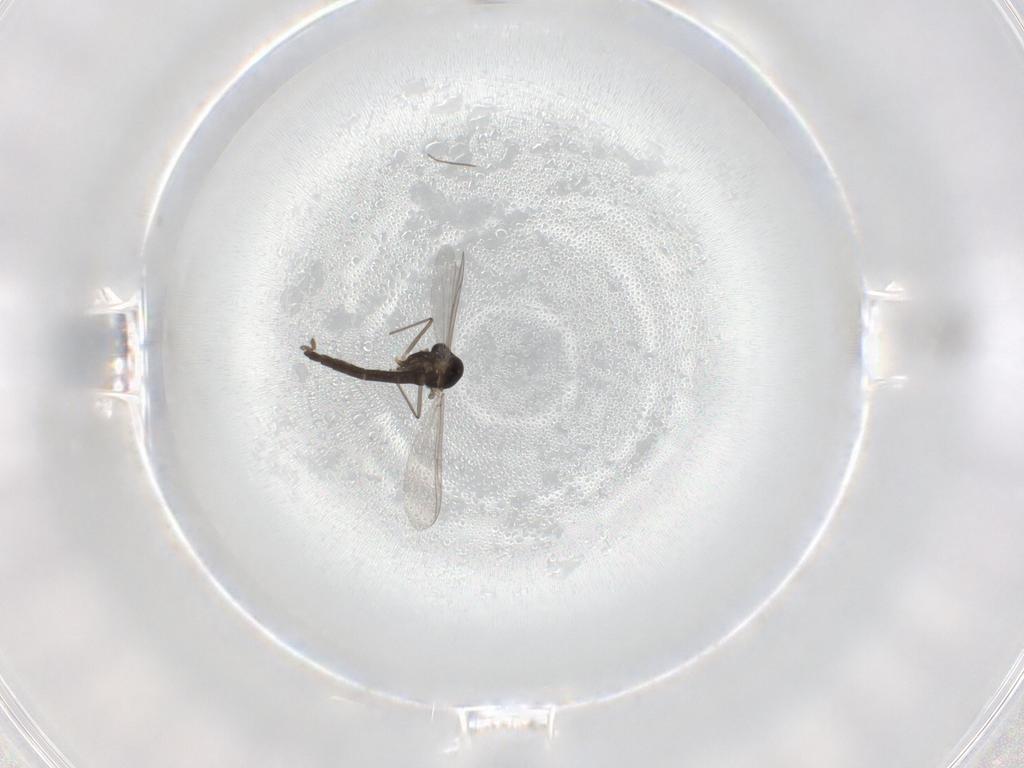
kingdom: Animalia
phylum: Arthropoda
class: Insecta
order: Diptera
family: Chironomidae
